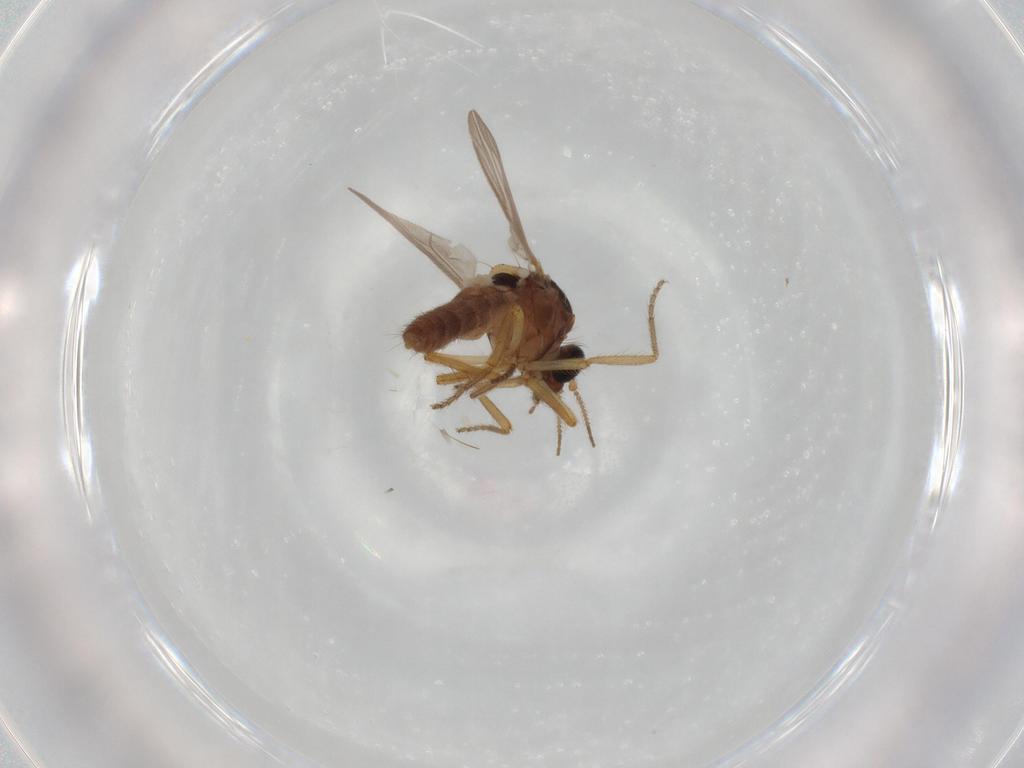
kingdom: Animalia
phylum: Arthropoda
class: Insecta
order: Diptera
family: Ceratopogonidae
